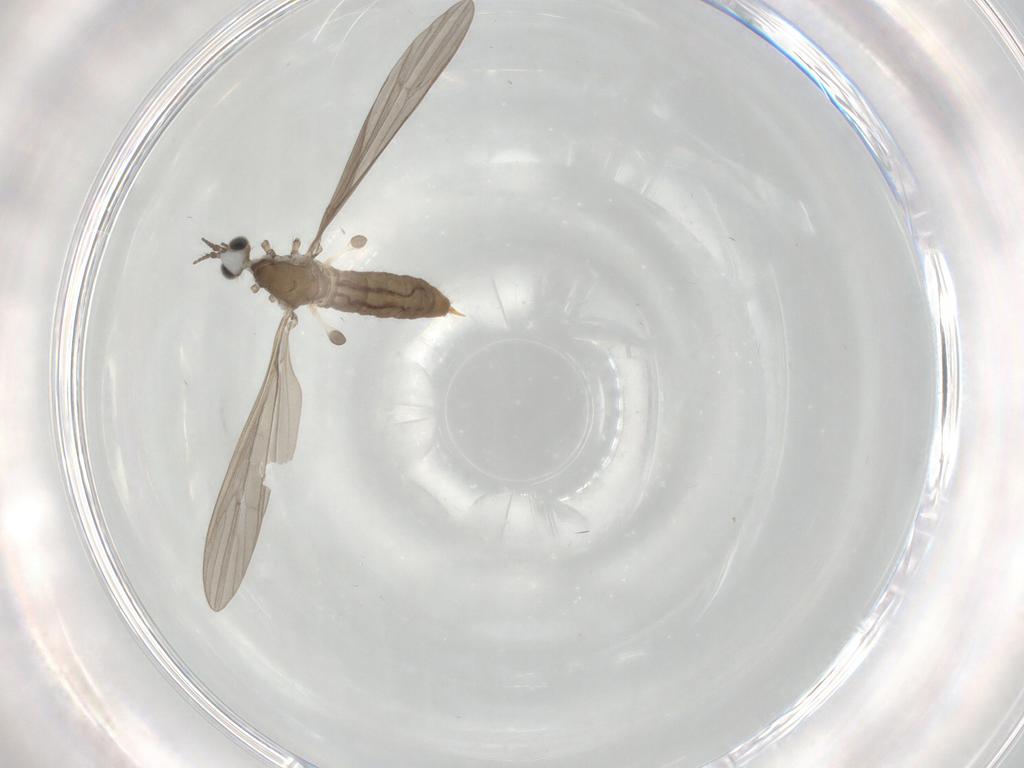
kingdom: Animalia
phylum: Arthropoda
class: Insecta
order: Diptera
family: Limoniidae
